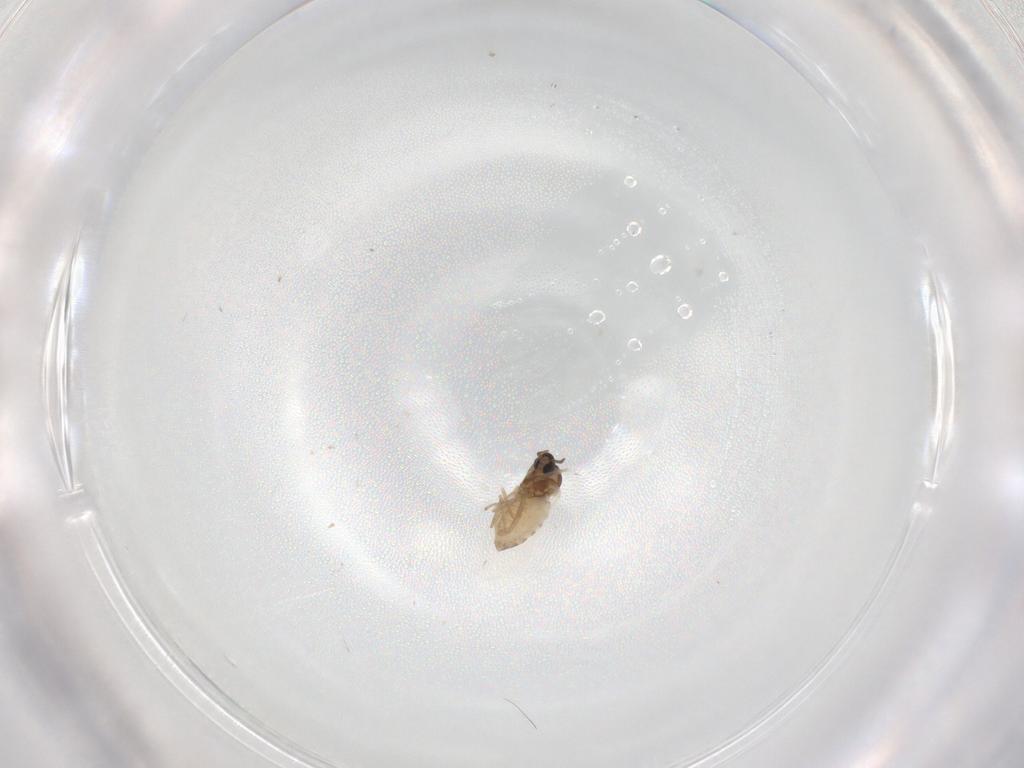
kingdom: Animalia
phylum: Arthropoda
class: Insecta
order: Diptera
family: Cecidomyiidae
